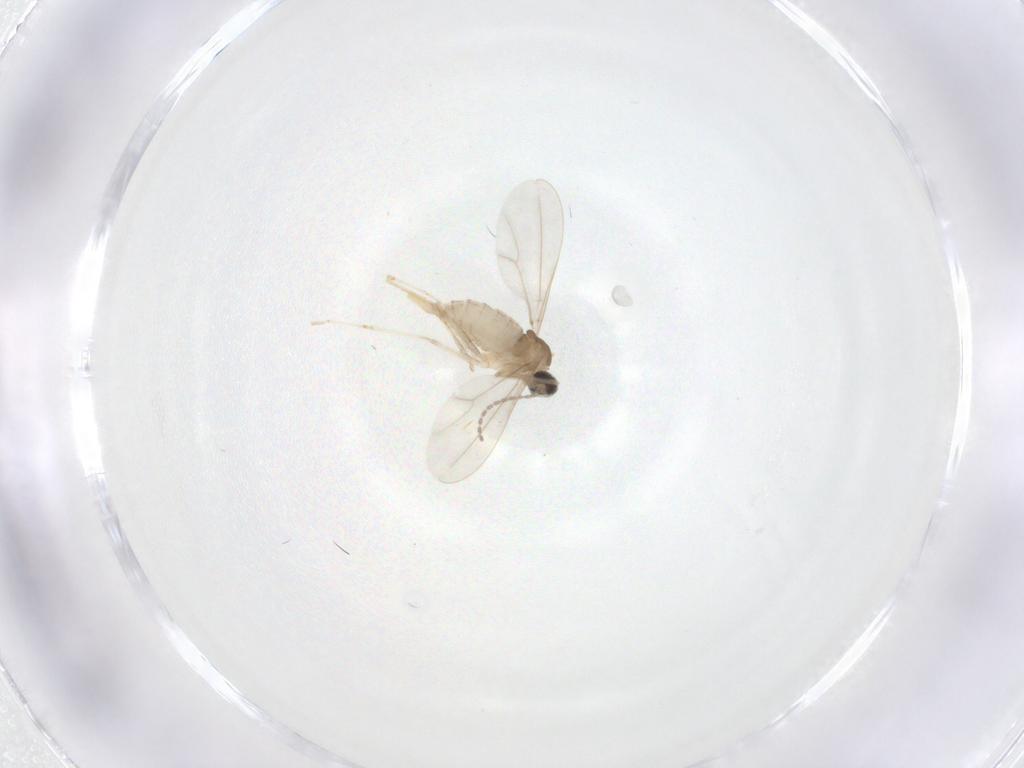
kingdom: Animalia
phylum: Arthropoda
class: Insecta
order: Diptera
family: Cecidomyiidae
